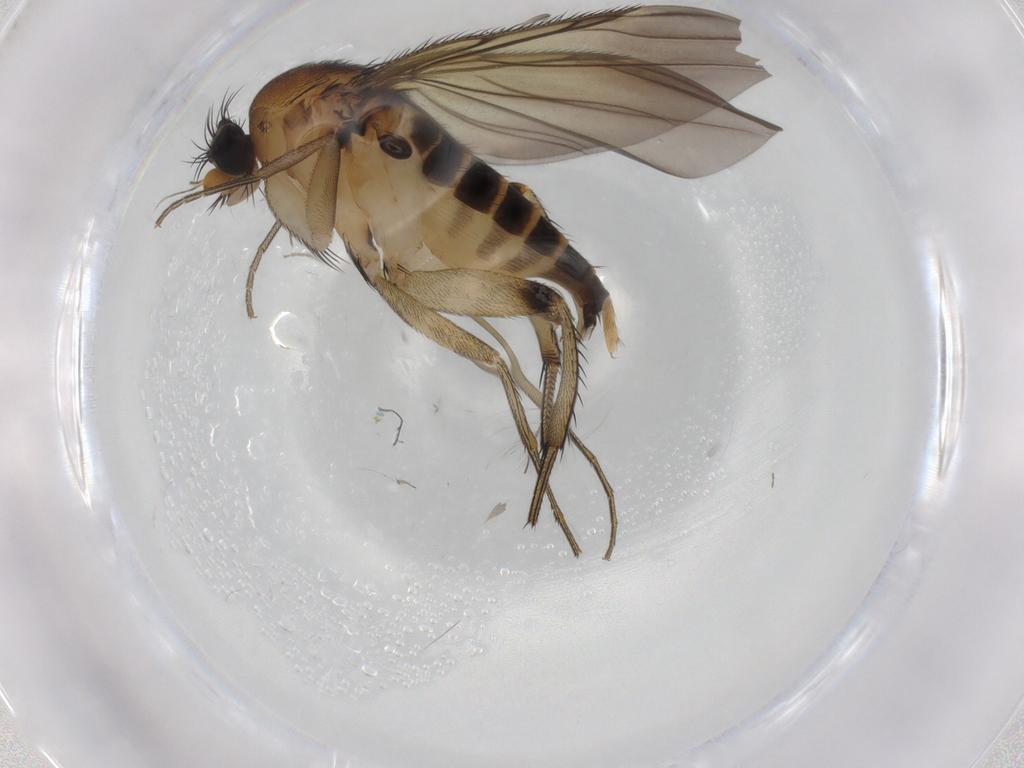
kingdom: Animalia
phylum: Arthropoda
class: Insecta
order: Diptera
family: Phoridae
